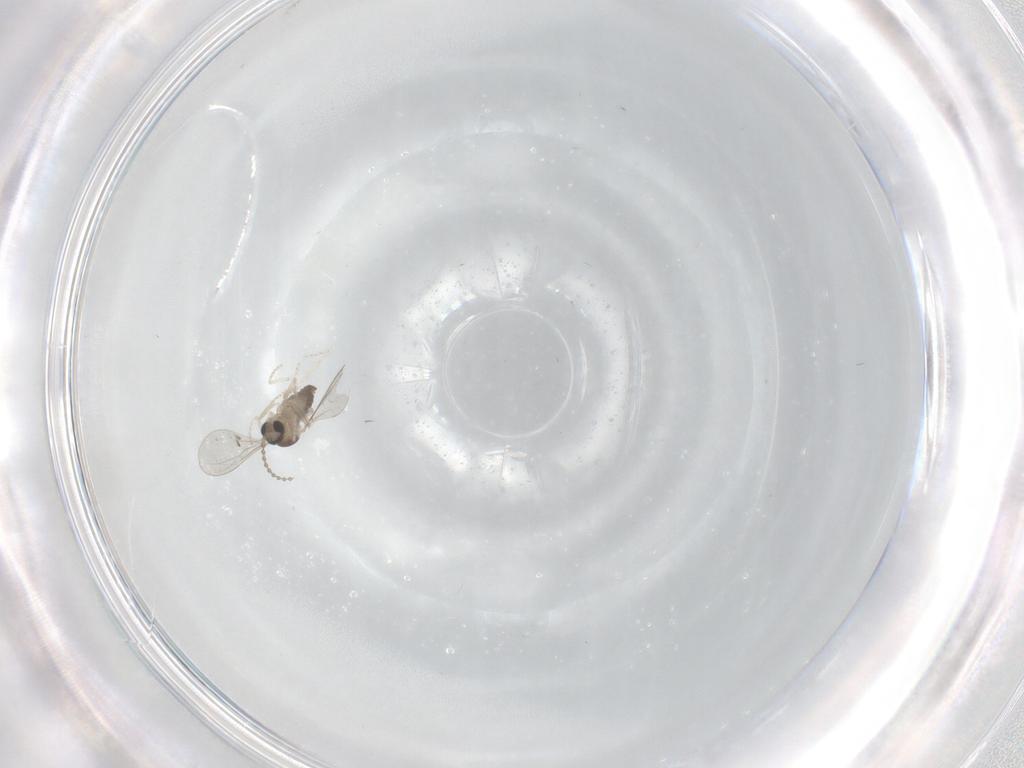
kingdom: Animalia
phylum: Arthropoda
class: Insecta
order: Diptera
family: Cecidomyiidae
